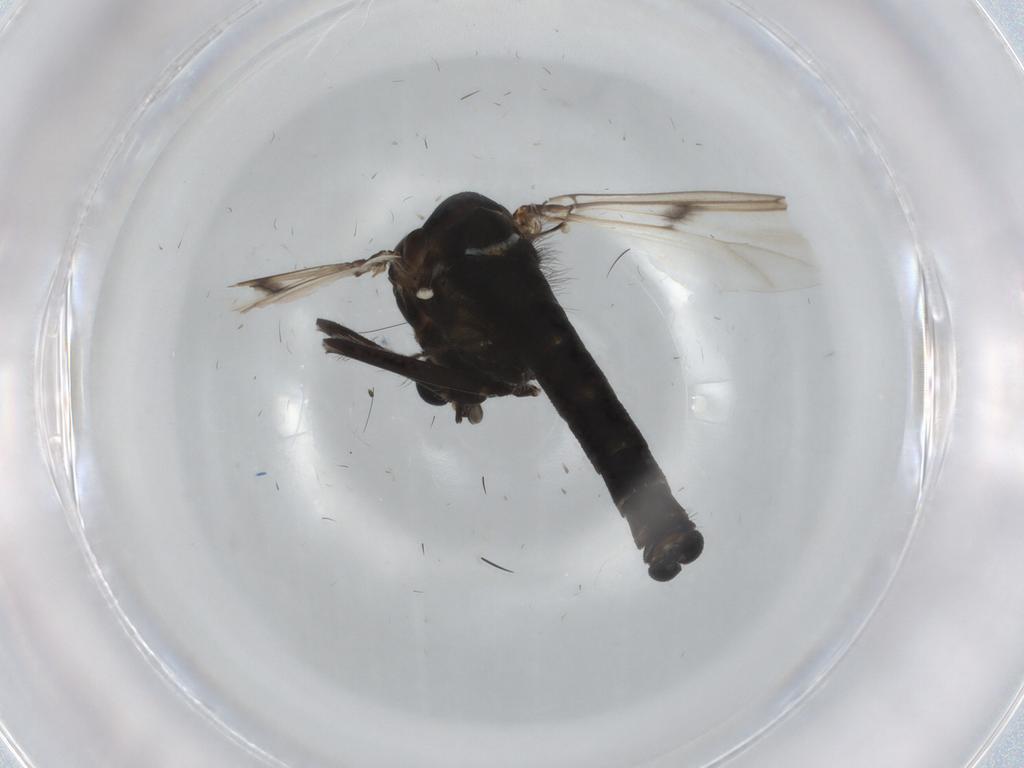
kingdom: Animalia
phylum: Arthropoda
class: Insecta
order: Diptera
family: Chironomidae
